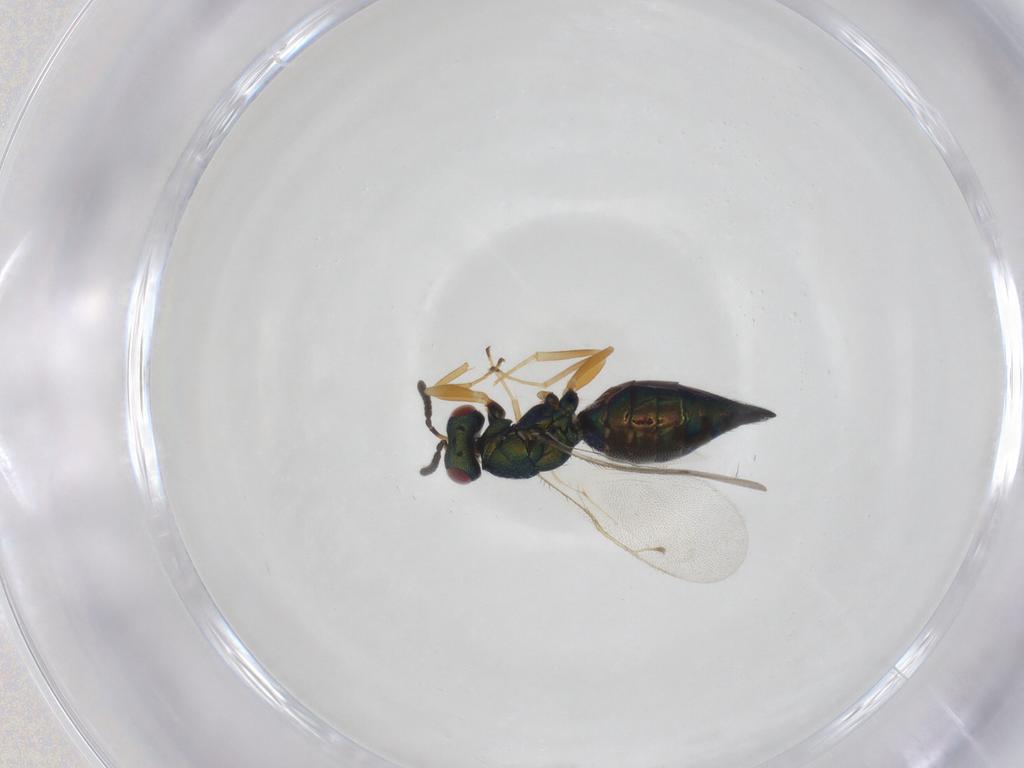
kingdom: Animalia
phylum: Arthropoda
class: Insecta
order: Hymenoptera
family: Pteromalidae
